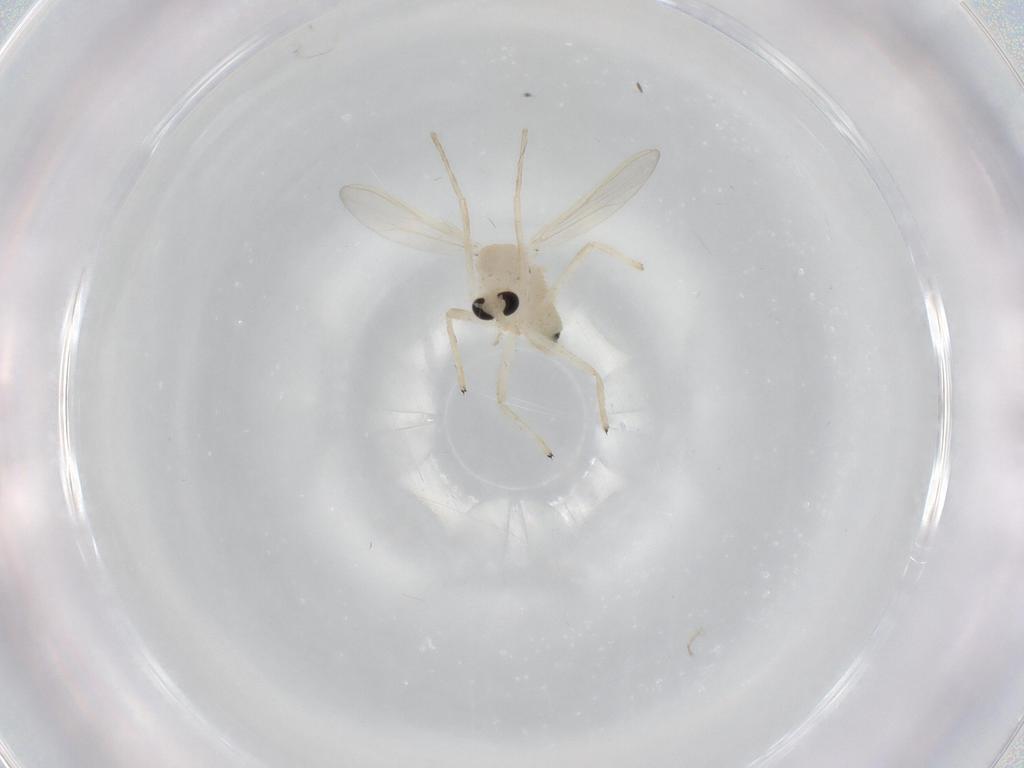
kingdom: Animalia
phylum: Arthropoda
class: Insecta
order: Diptera
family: Chironomidae
